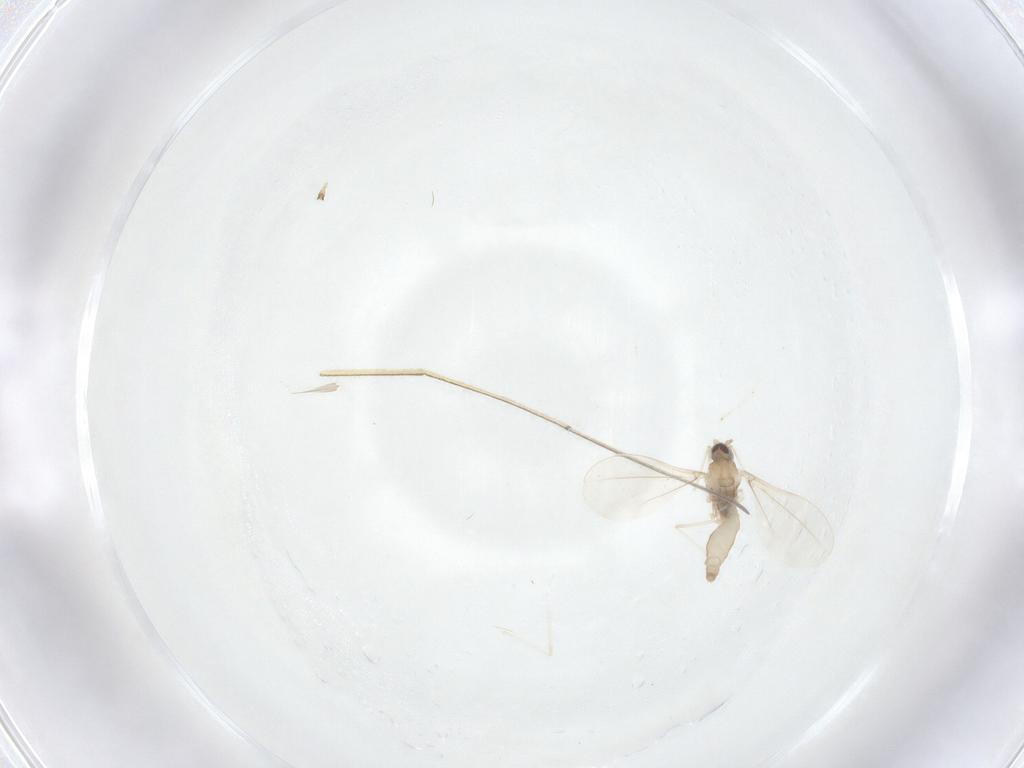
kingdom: Animalia
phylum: Arthropoda
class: Insecta
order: Diptera
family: Cecidomyiidae
